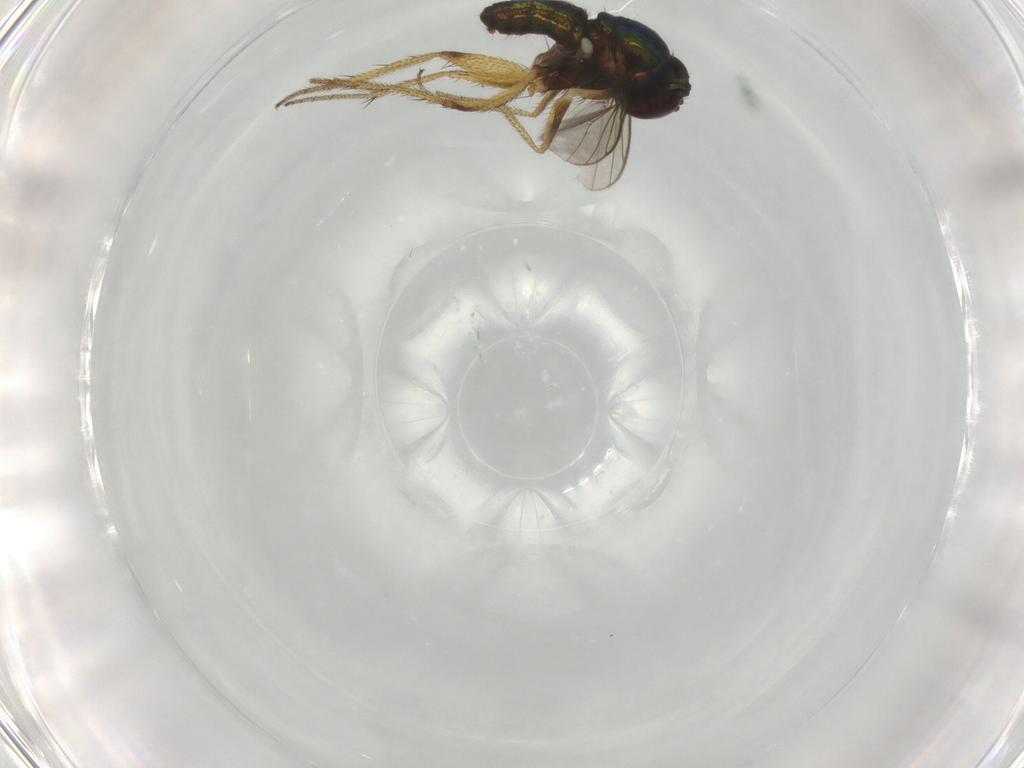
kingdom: Animalia
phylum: Arthropoda
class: Insecta
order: Diptera
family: Dolichopodidae
